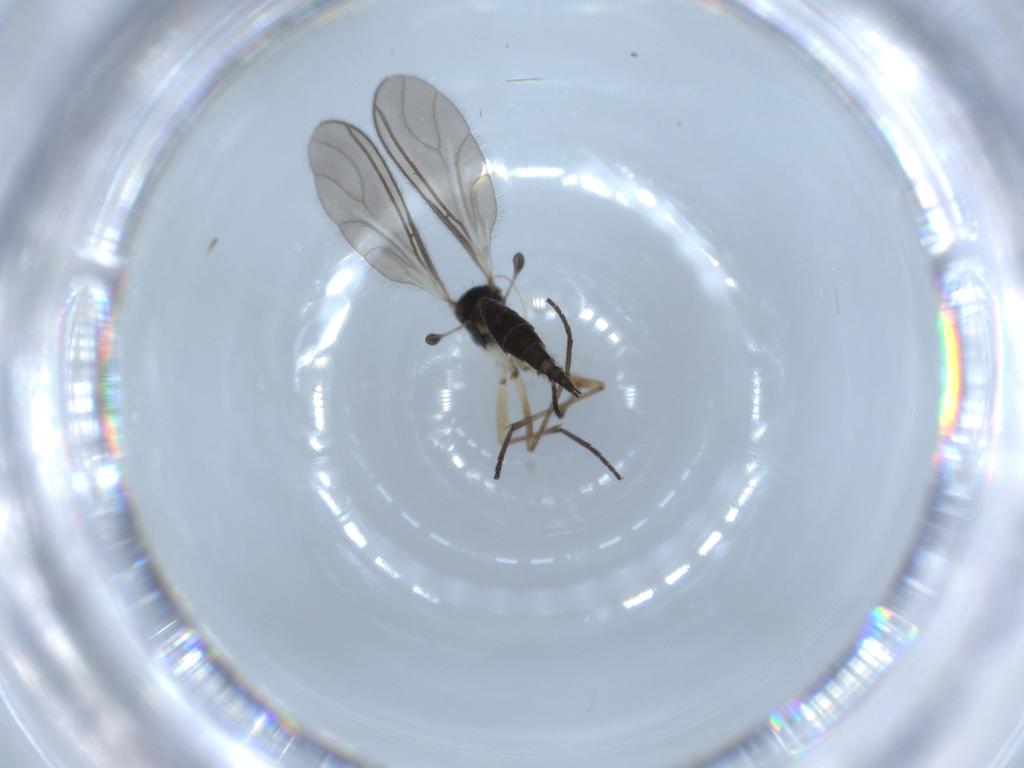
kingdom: Animalia
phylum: Arthropoda
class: Insecta
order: Diptera
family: Sciaridae
